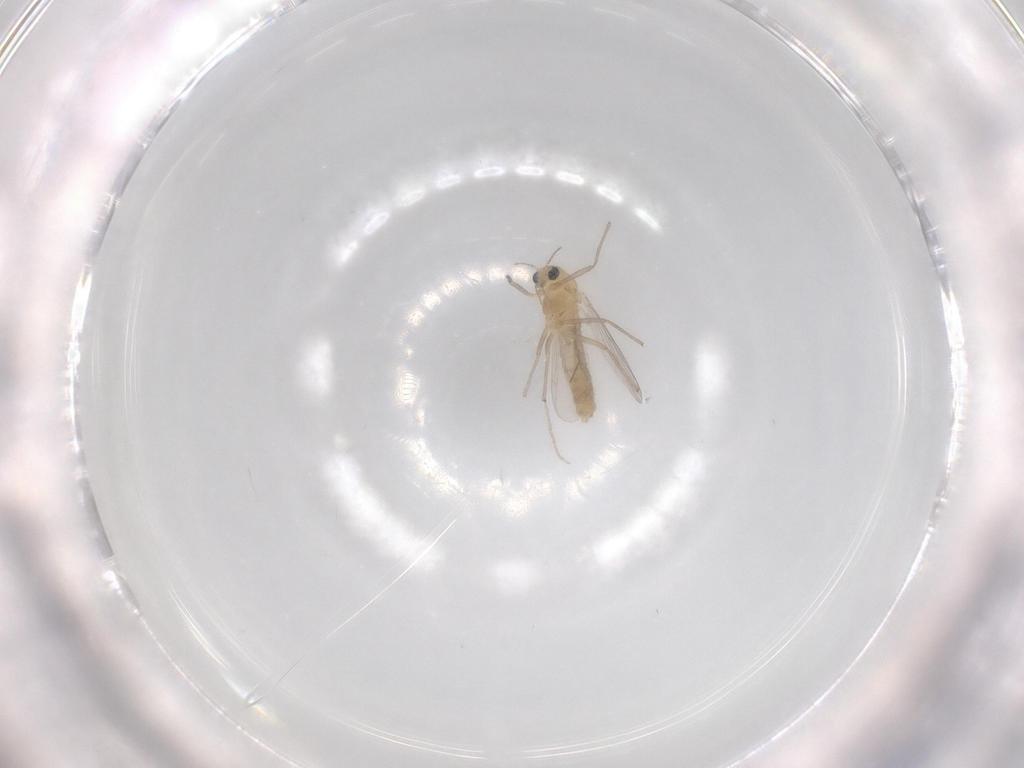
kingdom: Animalia
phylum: Arthropoda
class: Insecta
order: Diptera
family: Chironomidae
